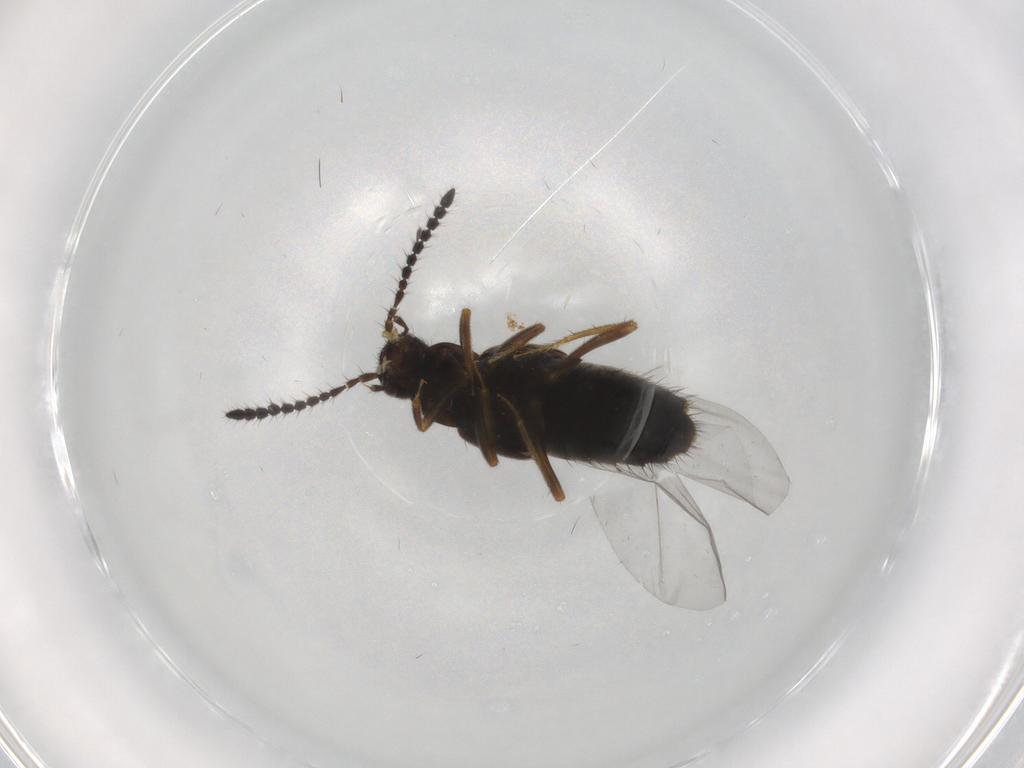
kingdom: Animalia
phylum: Arthropoda
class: Insecta
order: Coleoptera
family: Staphylinidae
